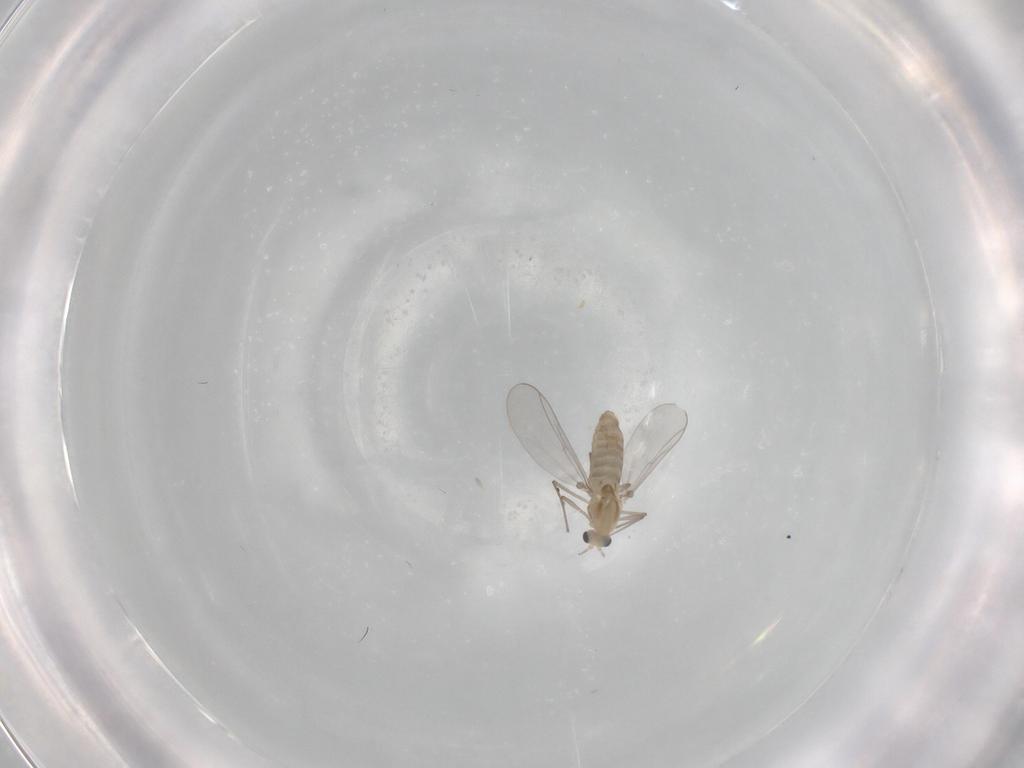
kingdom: Animalia
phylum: Arthropoda
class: Insecta
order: Diptera
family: Chironomidae
